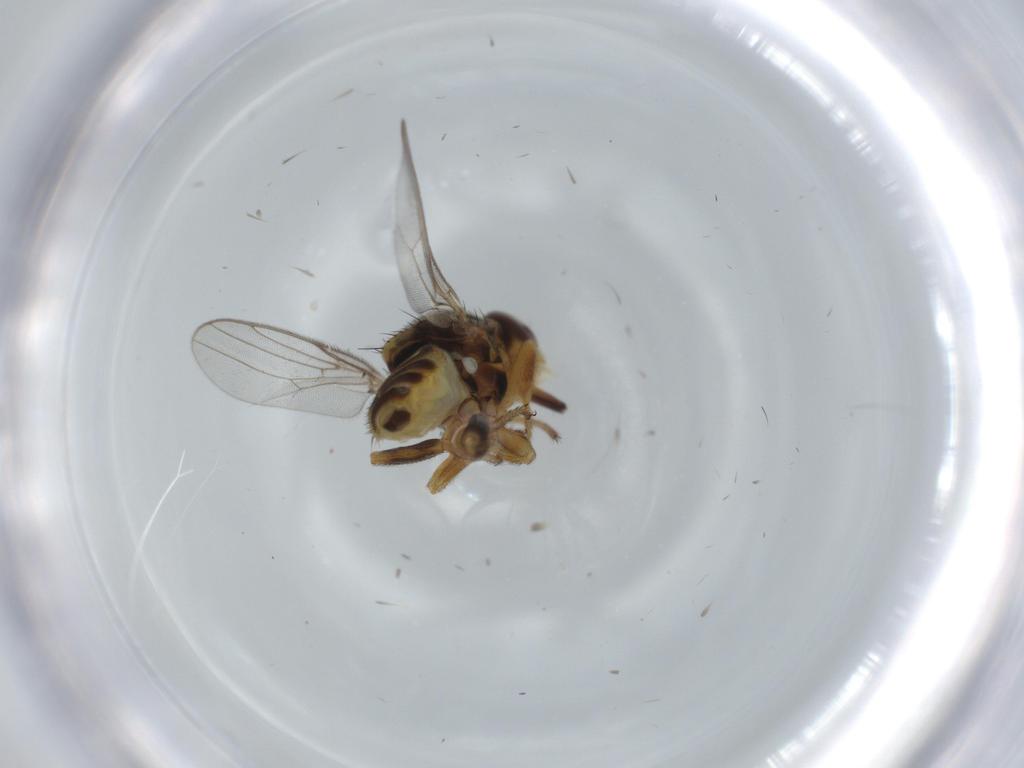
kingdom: Animalia
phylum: Arthropoda
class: Insecta
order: Diptera
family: Chloropidae
